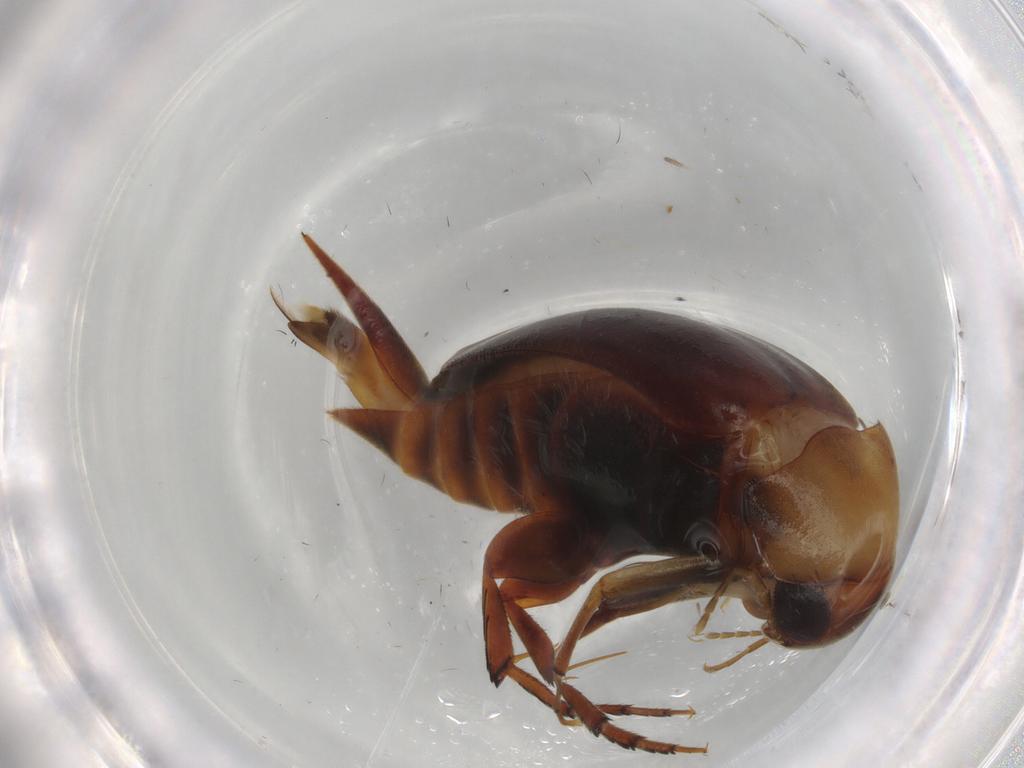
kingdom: Animalia
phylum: Arthropoda
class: Insecta
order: Coleoptera
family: Mordellidae
